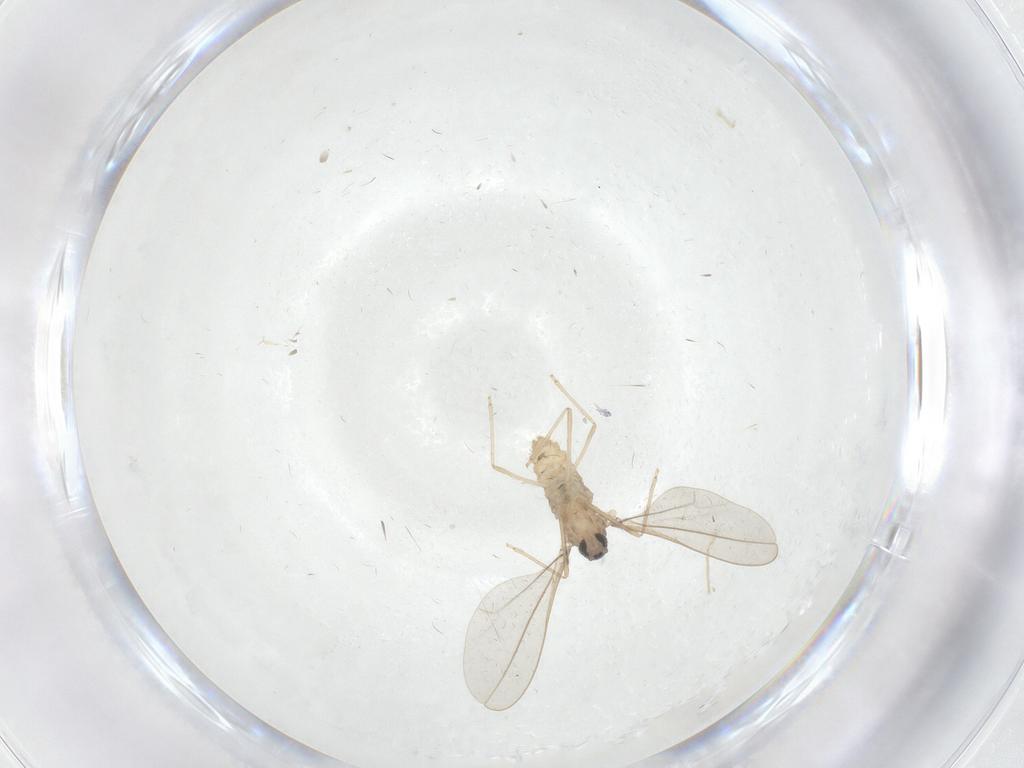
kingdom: Animalia
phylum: Arthropoda
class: Insecta
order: Diptera
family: Cecidomyiidae
